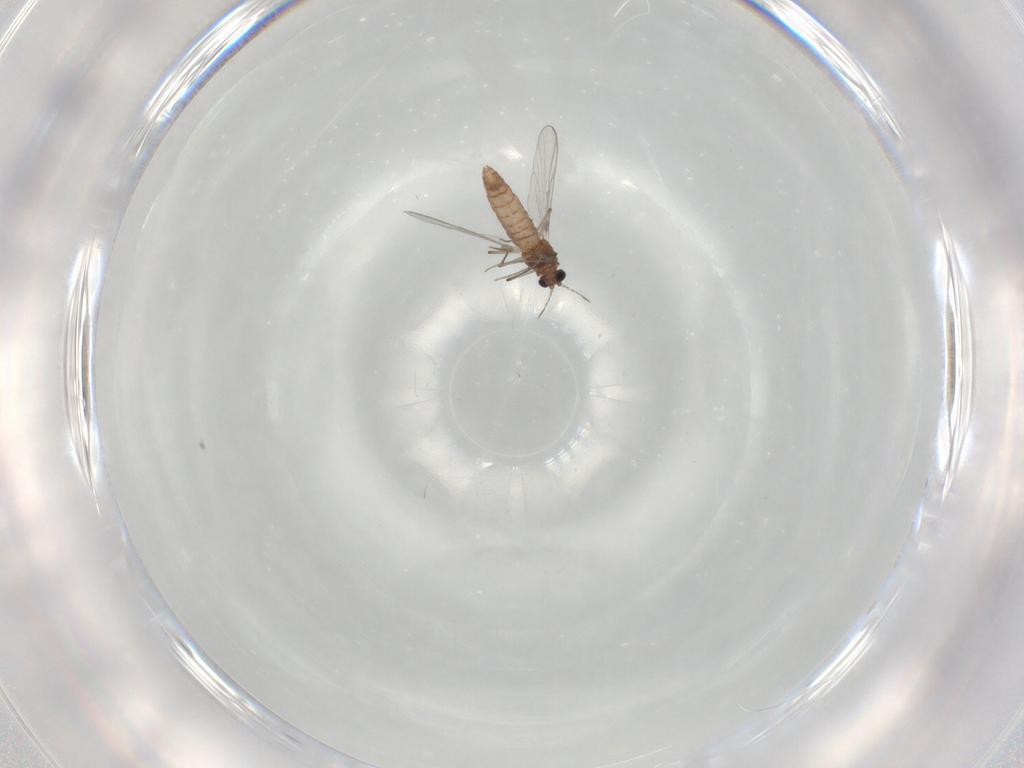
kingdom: Animalia
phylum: Arthropoda
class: Insecta
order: Diptera
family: Chironomidae
